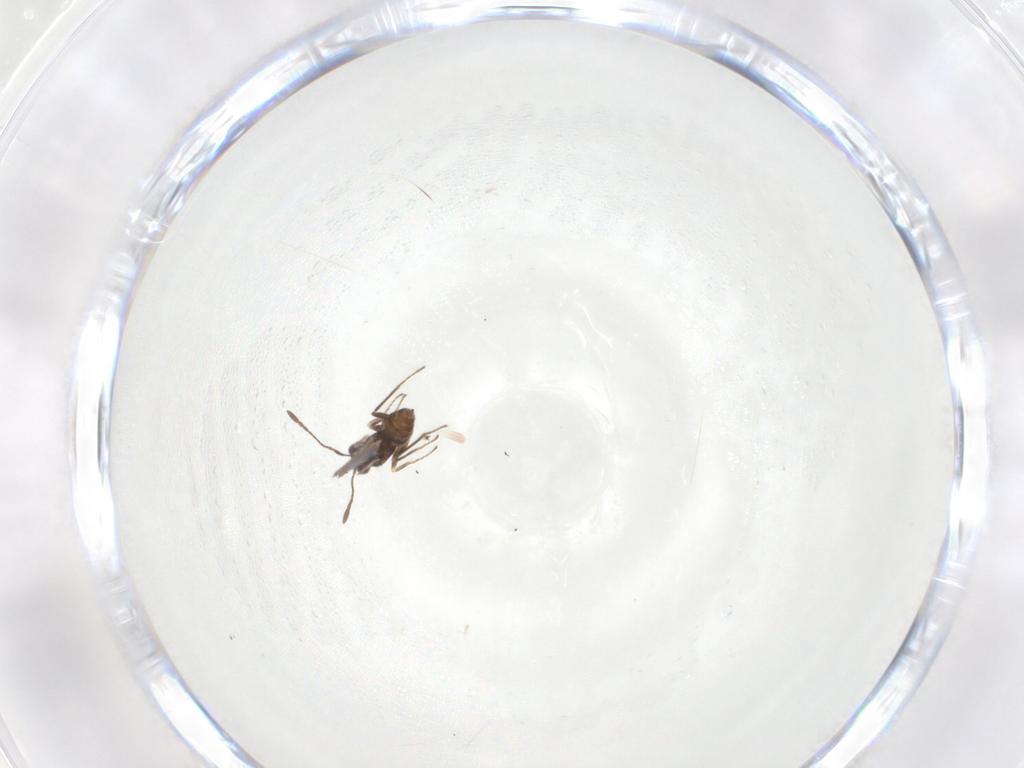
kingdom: Animalia
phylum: Arthropoda
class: Insecta
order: Hymenoptera
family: Mymaridae
